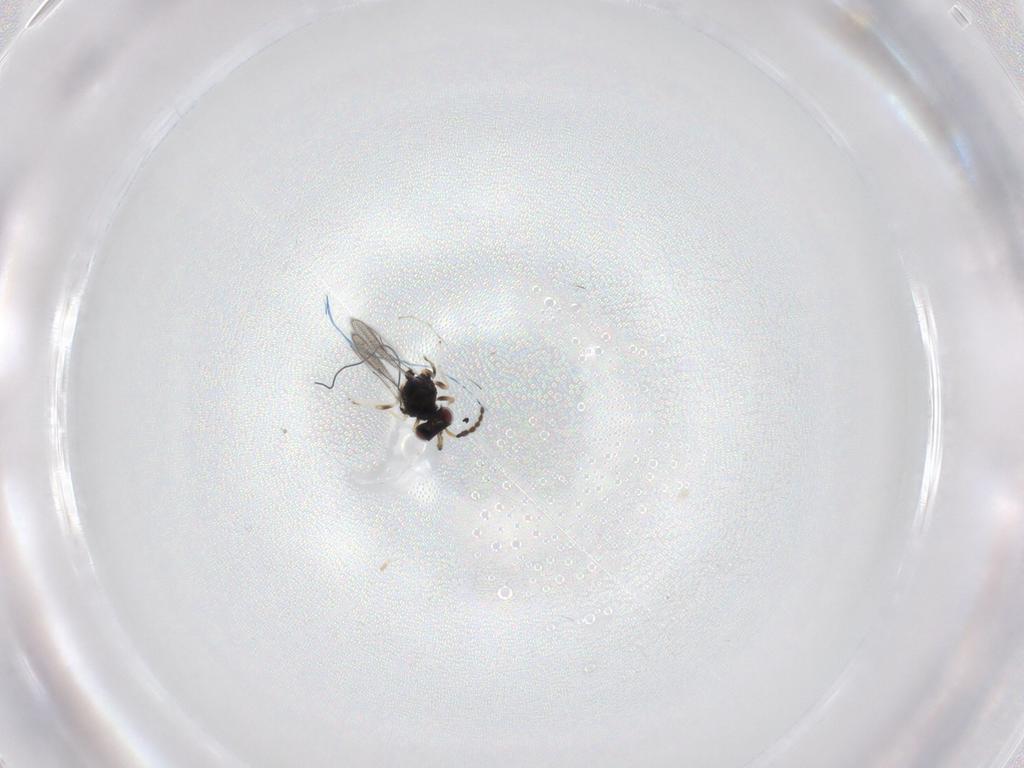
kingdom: Animalia
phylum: Arthropoda
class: Insecta
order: Hymenoptera
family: Eulophidae
